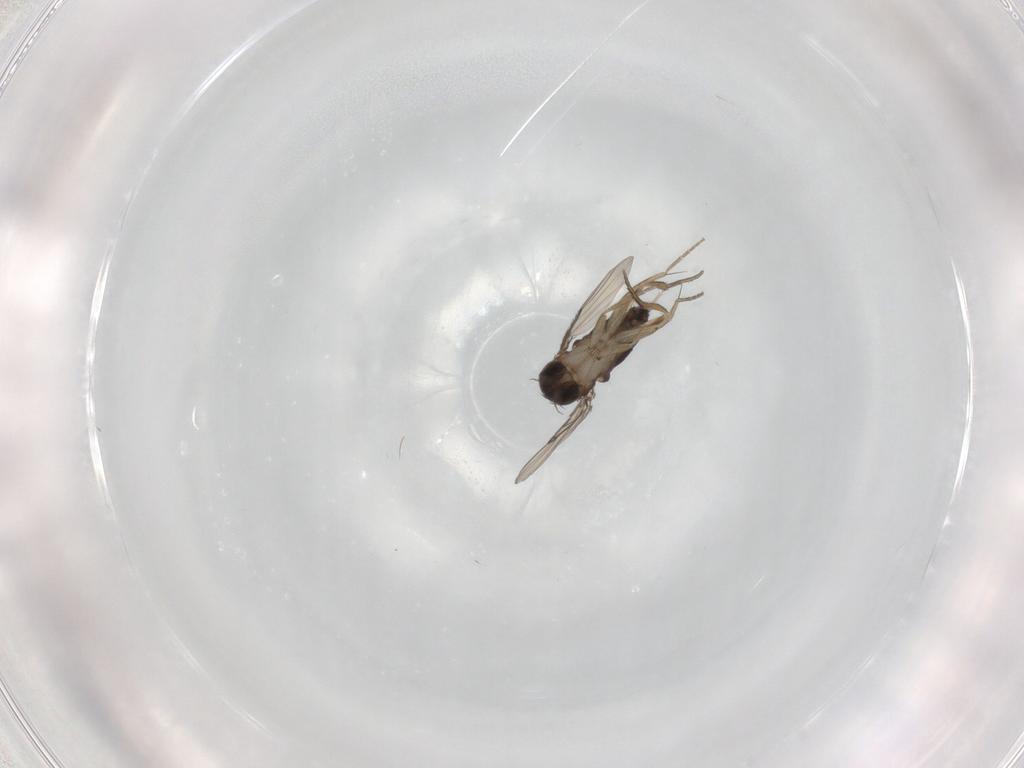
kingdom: Animalia
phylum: Arthropoda
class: Insecta
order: Diptera
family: Phoridae
